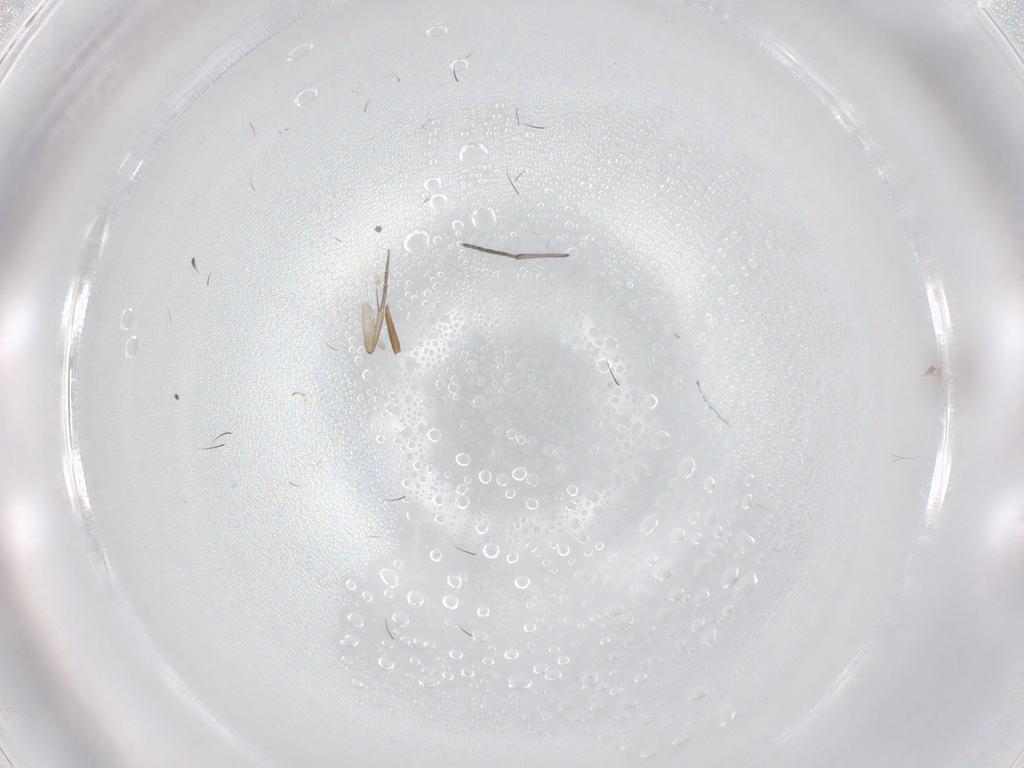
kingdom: Animalia
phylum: Arthropoda
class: Insecta
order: Diptera
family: Cecidomyiidae
